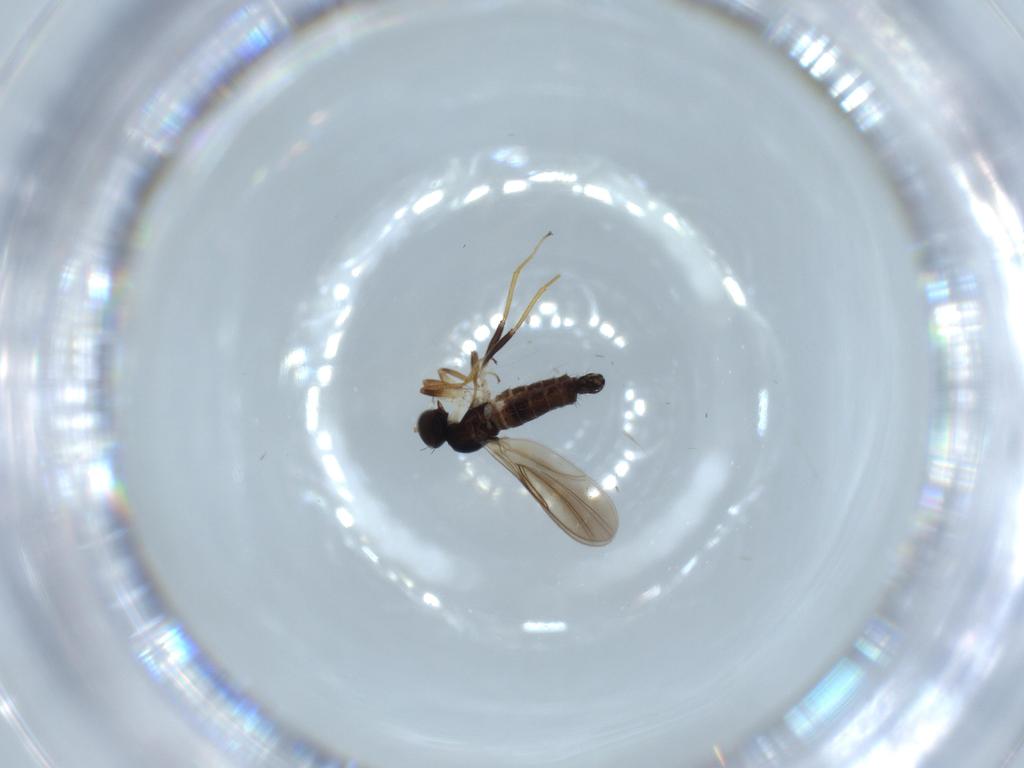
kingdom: Animalia
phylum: Arthropoda
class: Insecta
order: Diptera
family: Hybotidae
